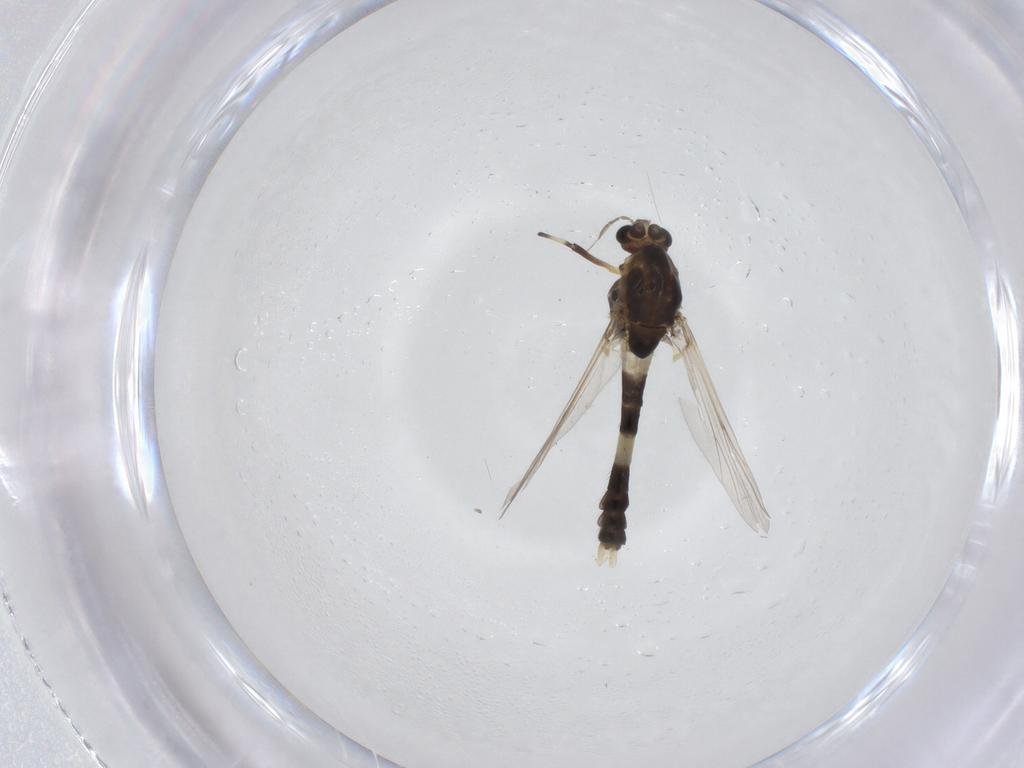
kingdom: Animalia
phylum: Arthropoda
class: Insecta
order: Diptera
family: Chironomidae
